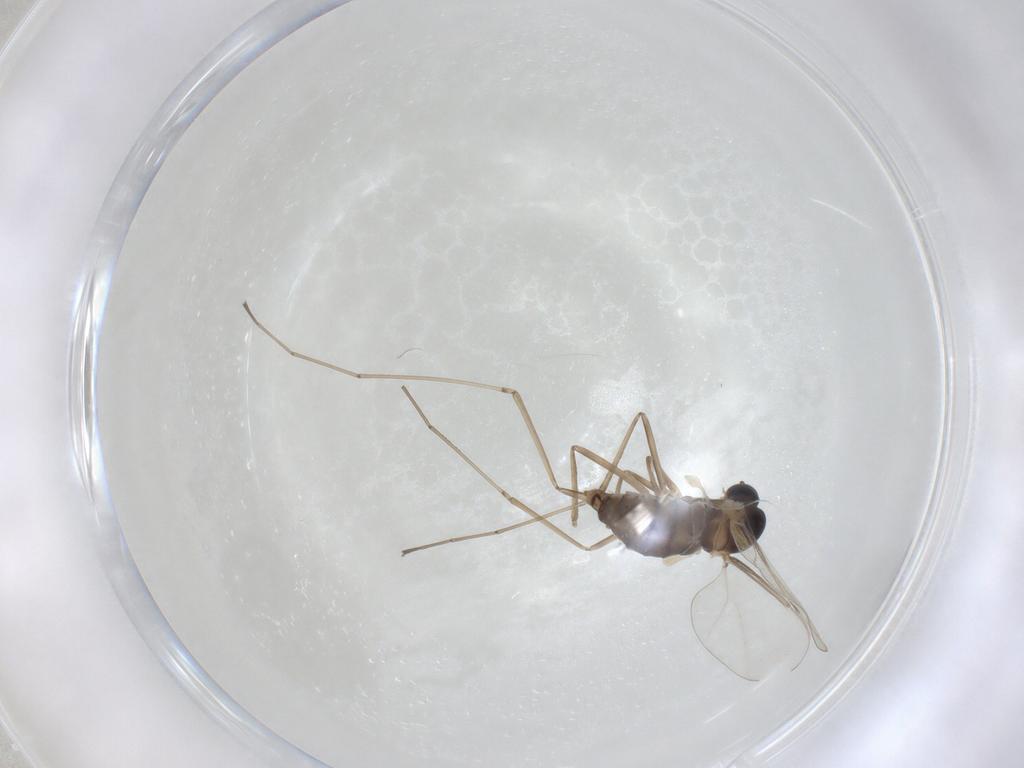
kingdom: Animalia
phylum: Arthropoda
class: Insecta
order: Diptera
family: Cecidomyiidae
